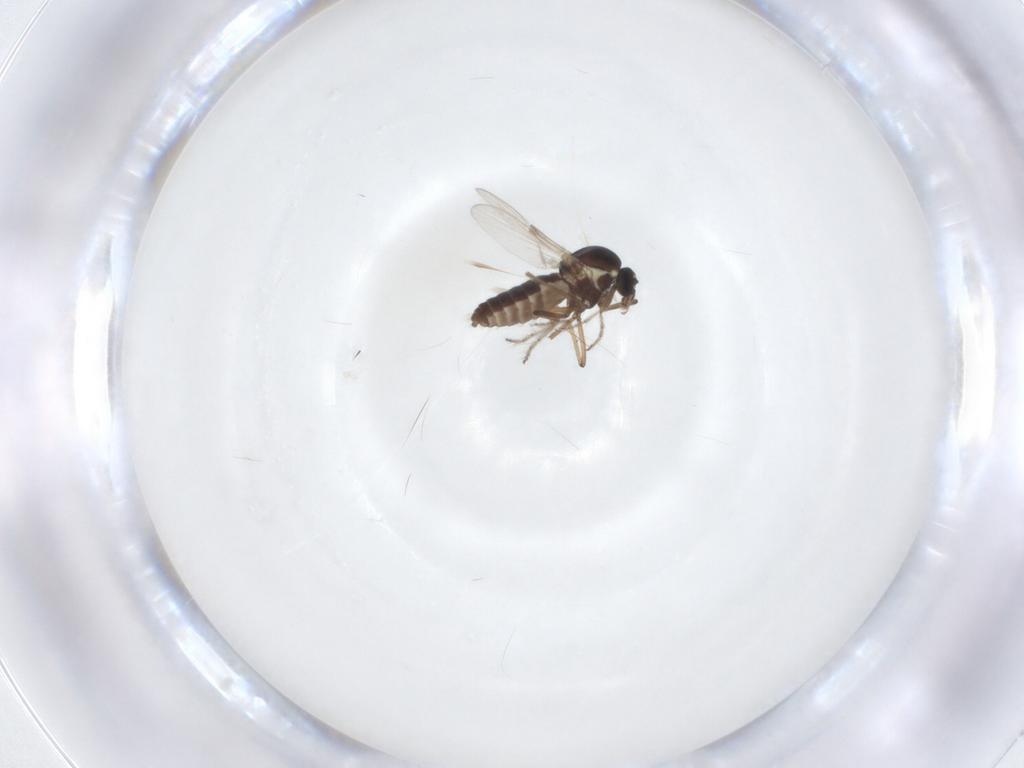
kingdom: Animalia
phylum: Arthropoda
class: Insecta
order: Diptera
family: Ceratopogonidae
